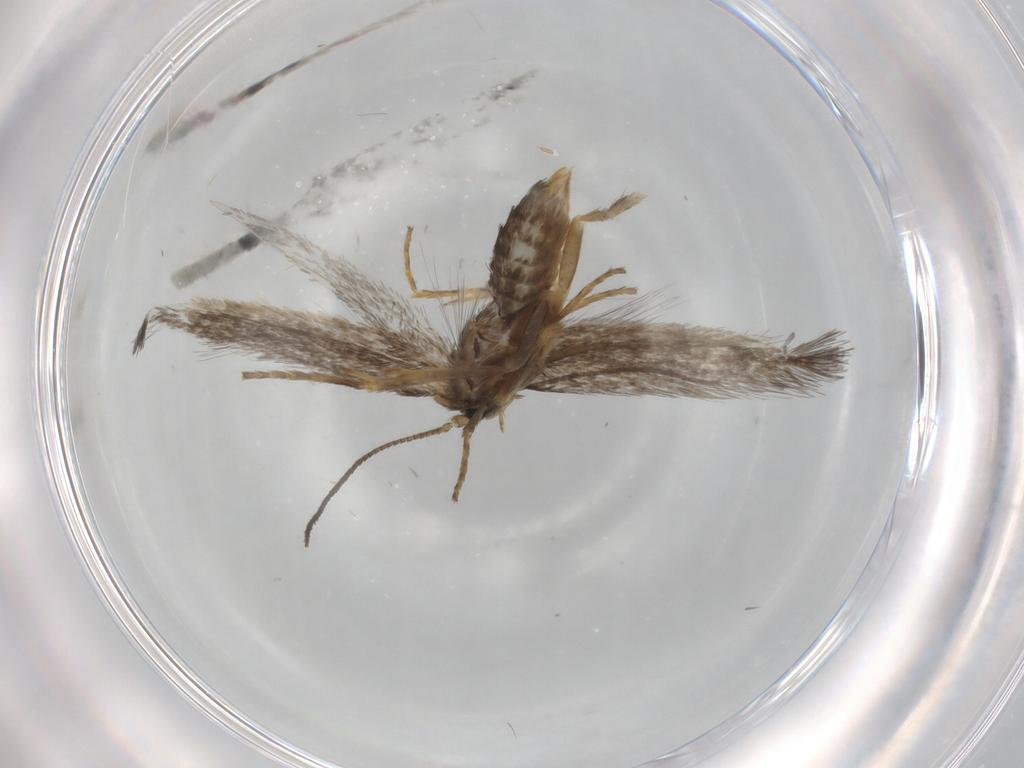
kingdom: Animalia
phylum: Arthropoda
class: Insecta
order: Lepidoptera
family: Nepticulidae
